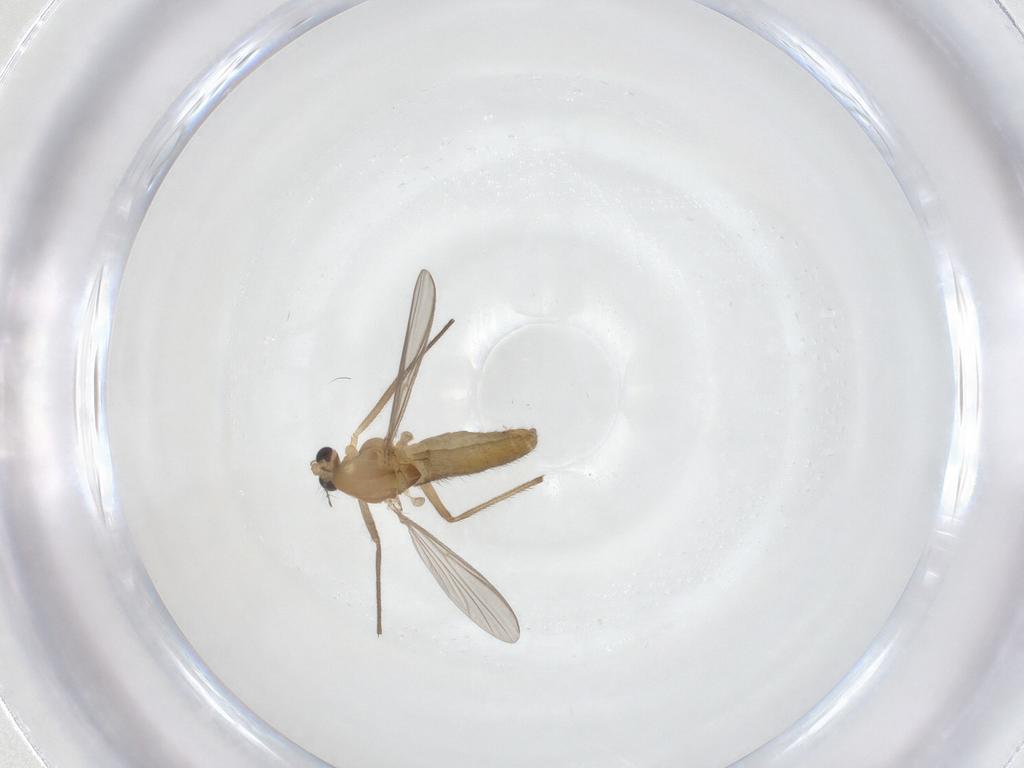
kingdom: Animalia
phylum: Arthropoda
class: Insecta
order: Diptera
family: Chironomidae
